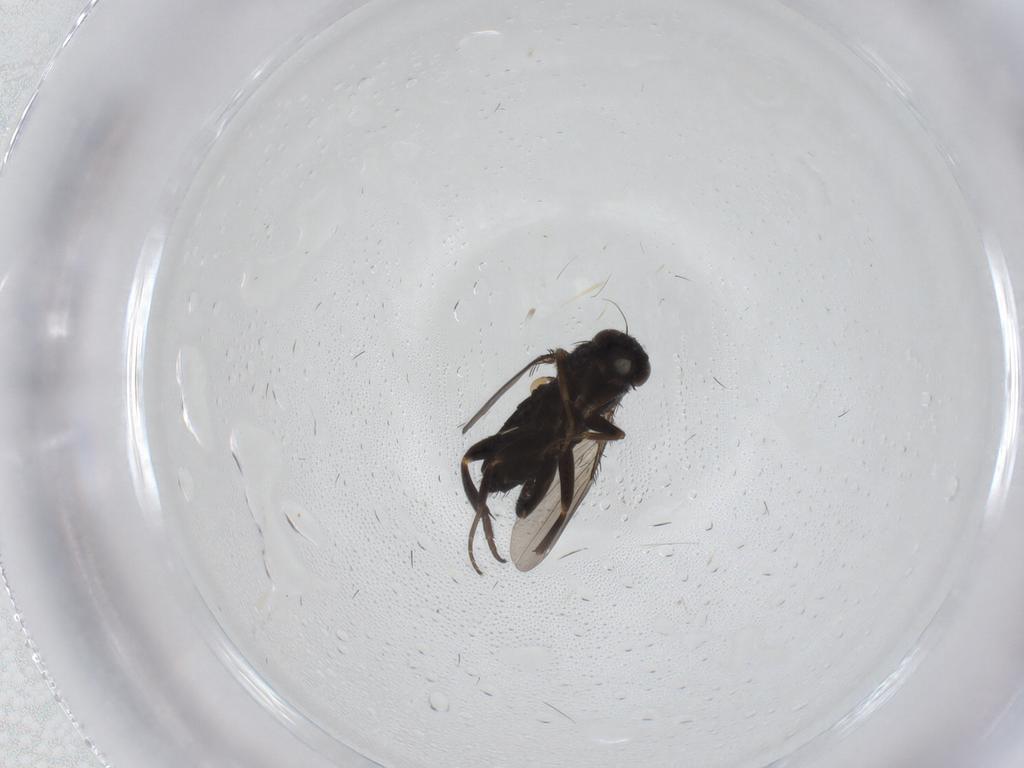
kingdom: Animalia
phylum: Arthropoda
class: Insecta
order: Diptera
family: Phoridae
